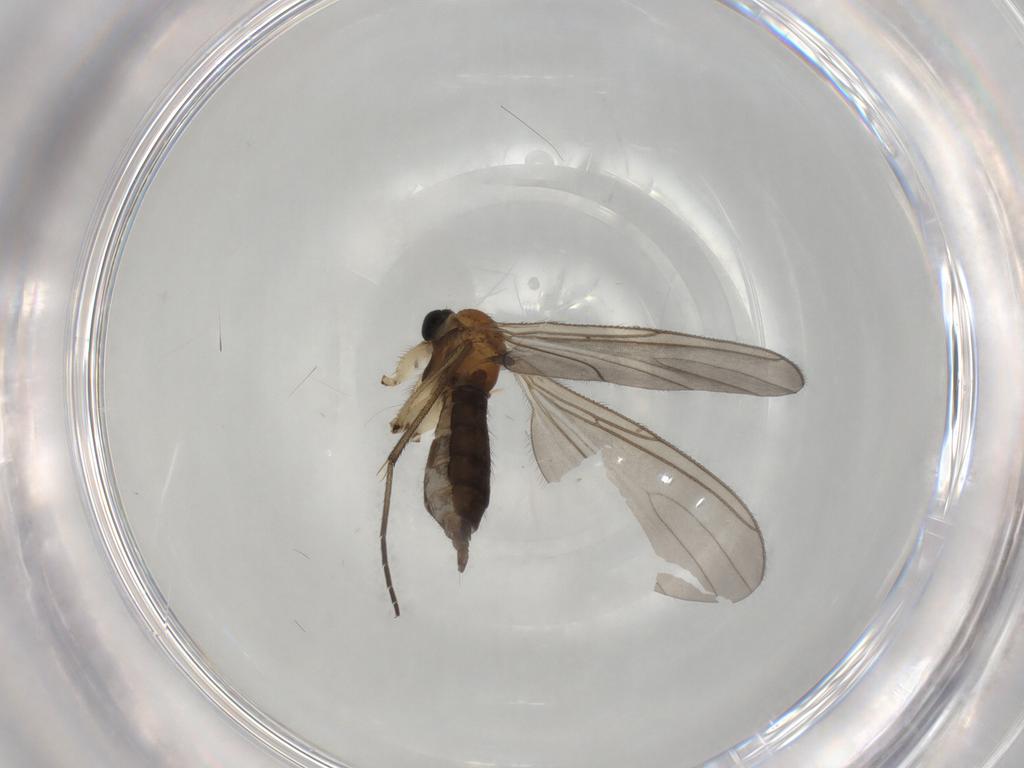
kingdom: Animalia
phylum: Arthropoda
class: Insecta
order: Diptera
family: Sciaridae
